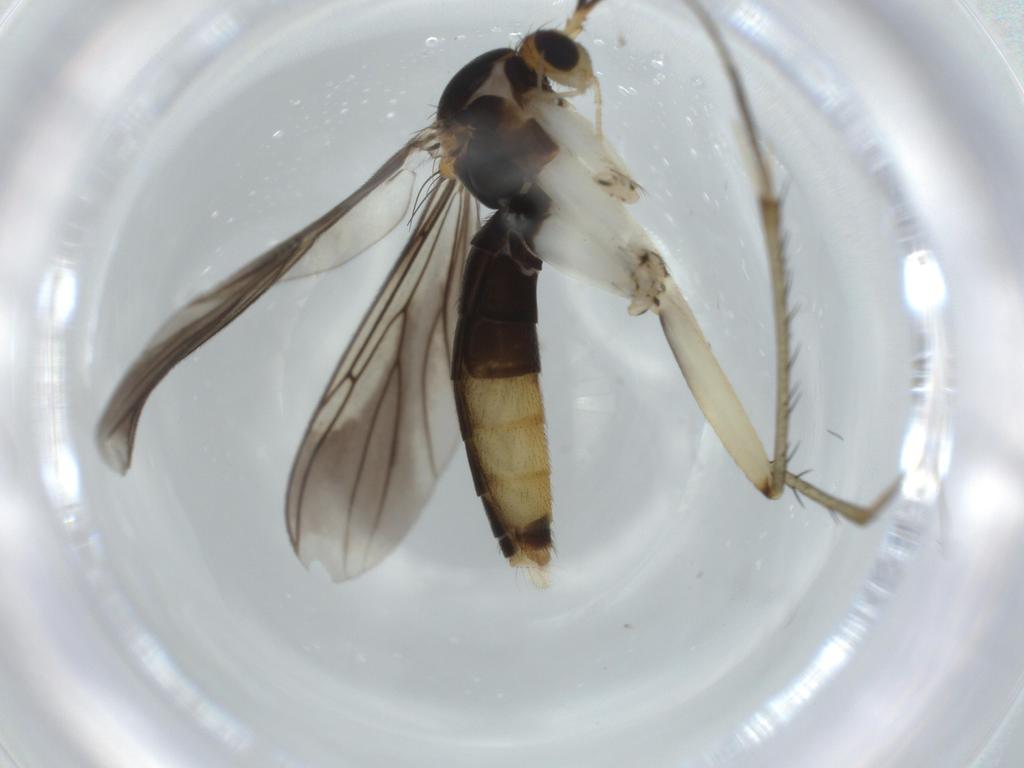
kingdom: Animalia
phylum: Arthropoda
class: Insecta
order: Diptera
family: Mycetophilidae
